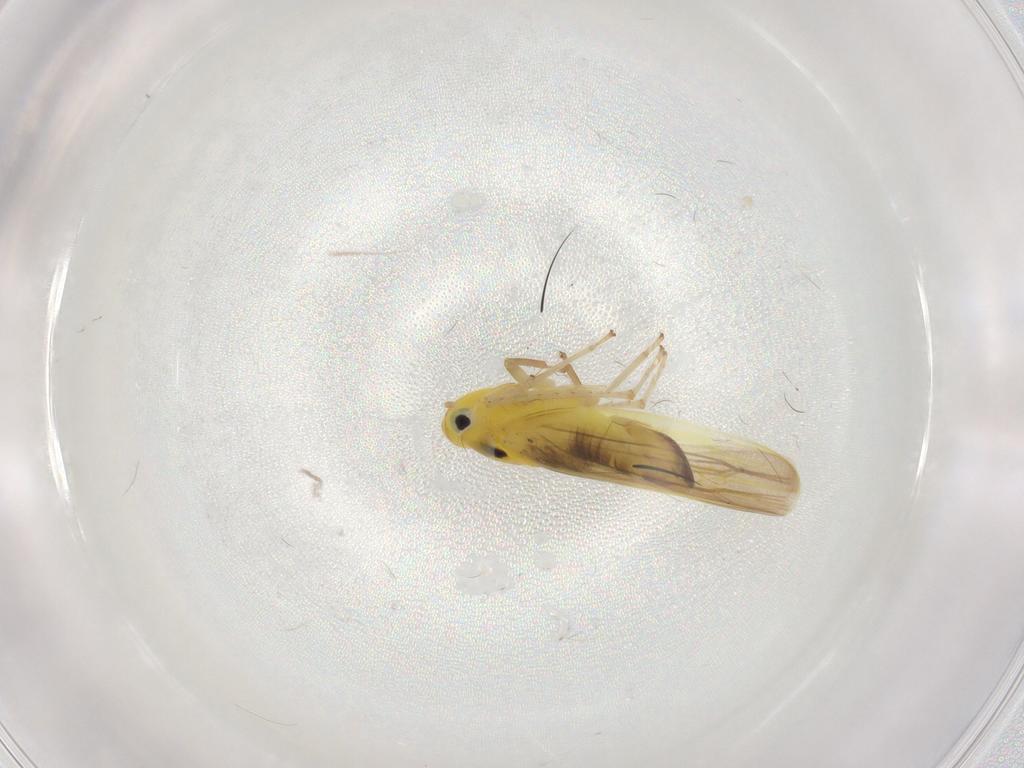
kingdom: Animalia
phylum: Arthropoda
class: Insecta
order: Hemiptera
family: Cicadellidae
